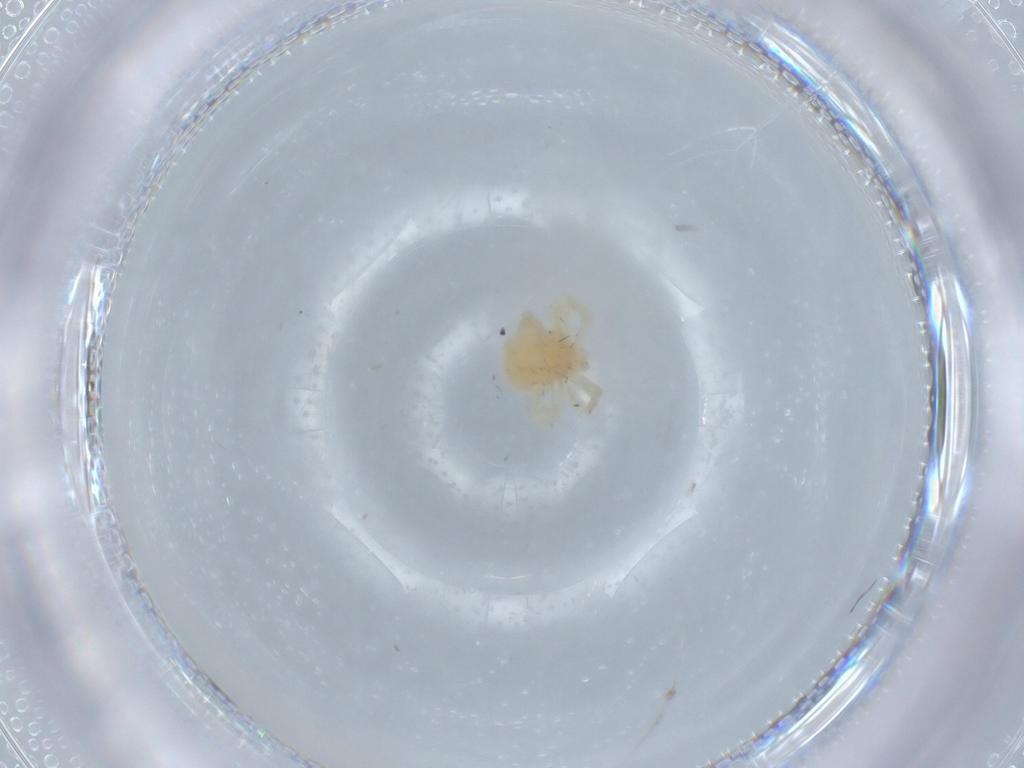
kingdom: Animalia
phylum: Arthropoda
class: Arachnida
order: Trombidiformes
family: Anystidae
